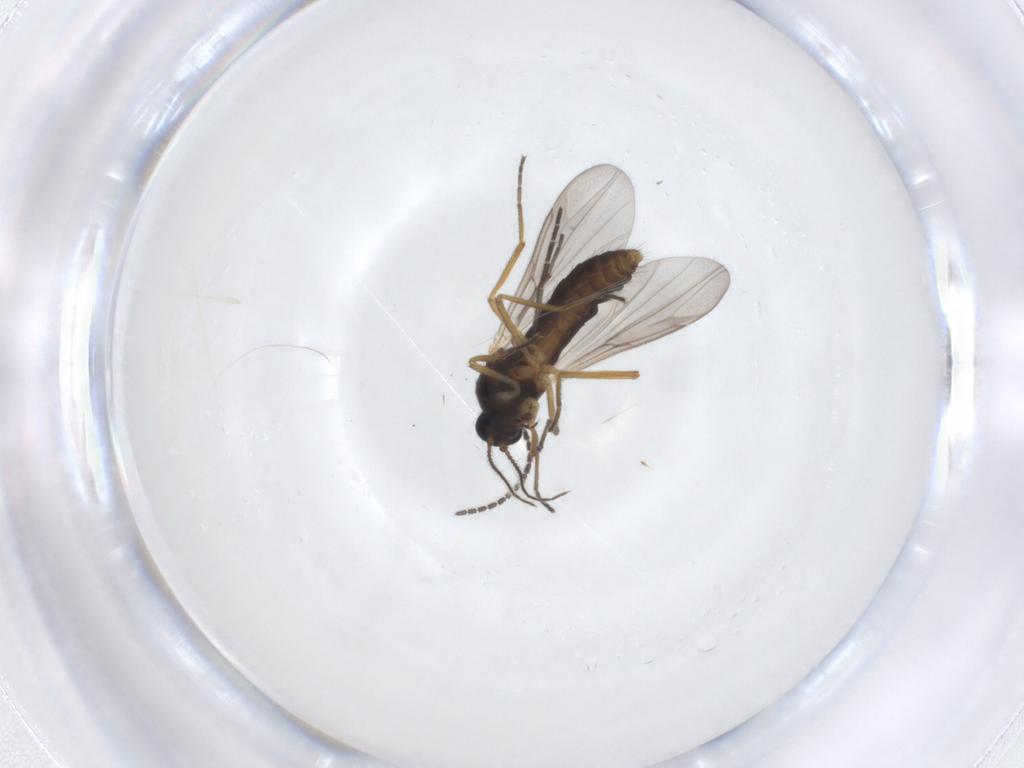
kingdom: Animalia
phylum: Arthropoda
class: Insecta
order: Diptera
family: Ceratopogonidae
